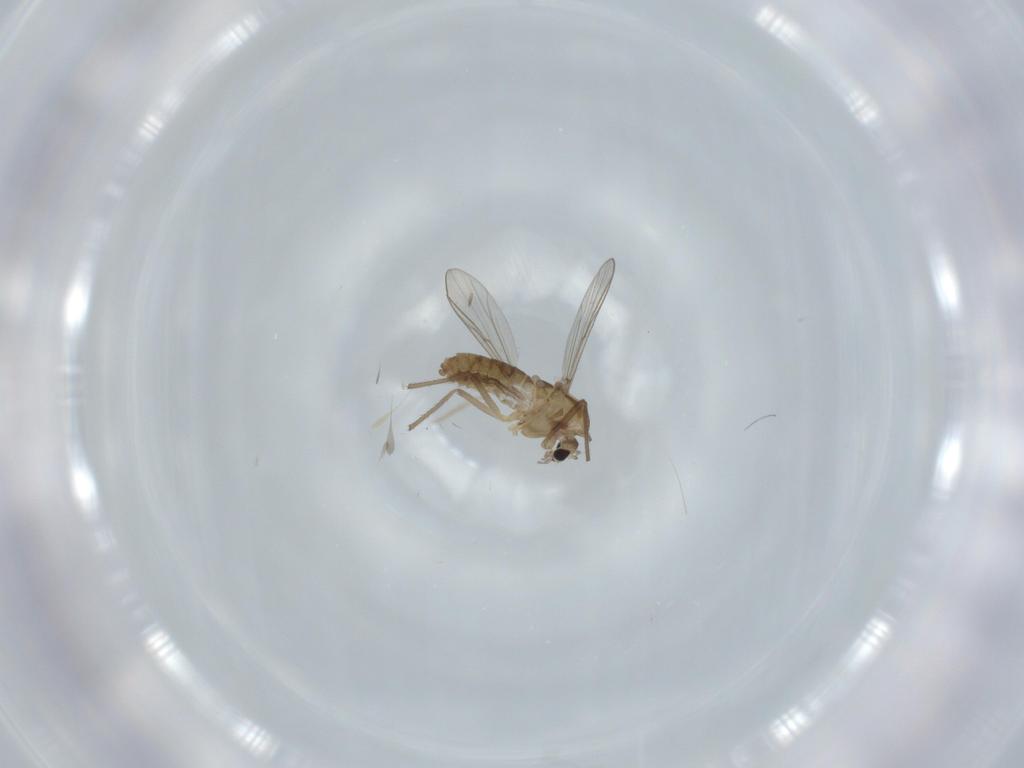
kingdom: Animalia
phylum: Arthropoda
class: Insecta
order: Diptera
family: Chironomidae
